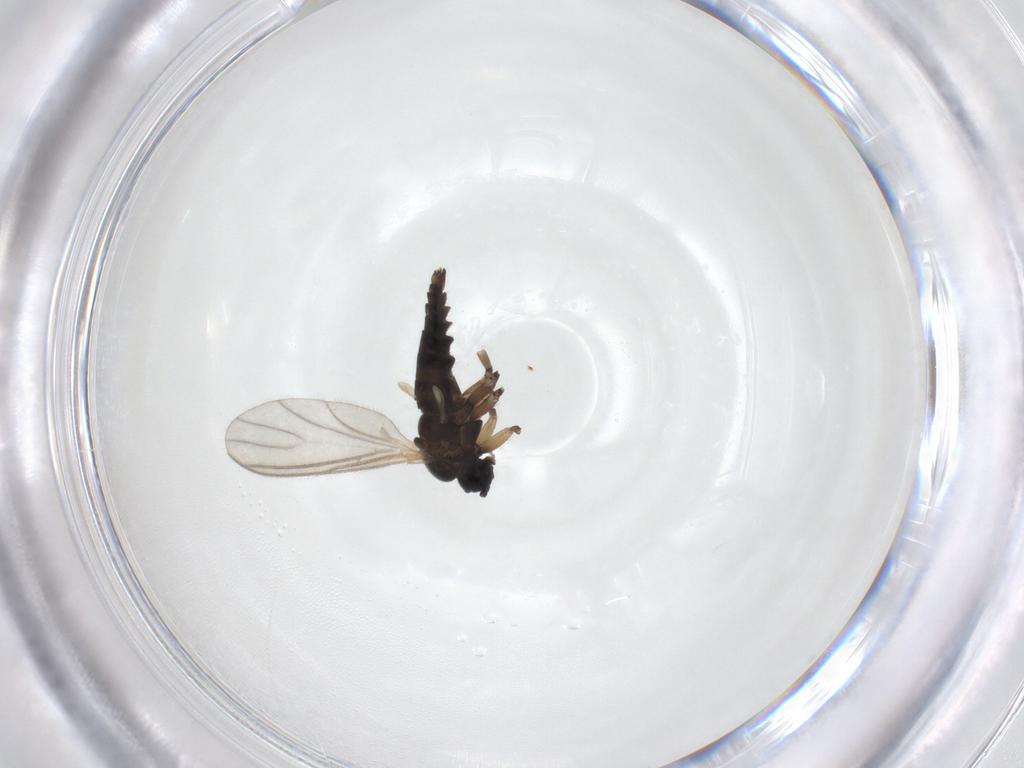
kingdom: Animalia
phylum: Arthropoda
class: Insecta
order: Diptera
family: Sciaridae
